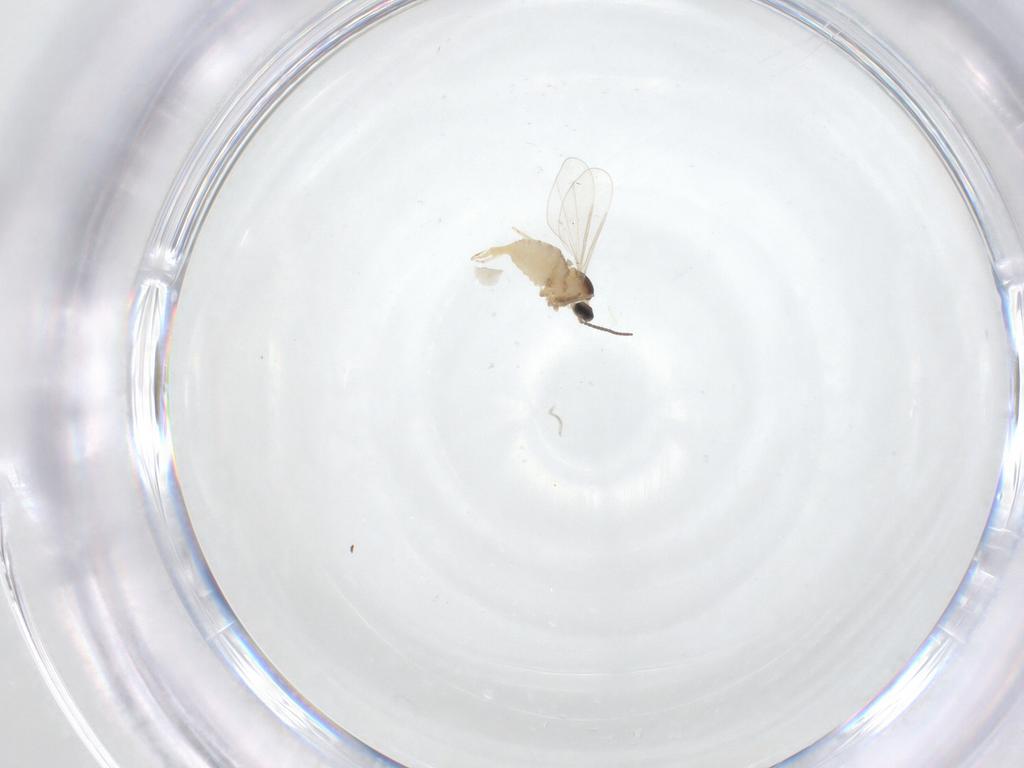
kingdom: Animalia
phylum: Arthropoda
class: Insecta
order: Diptera
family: Cecidomyiidae
